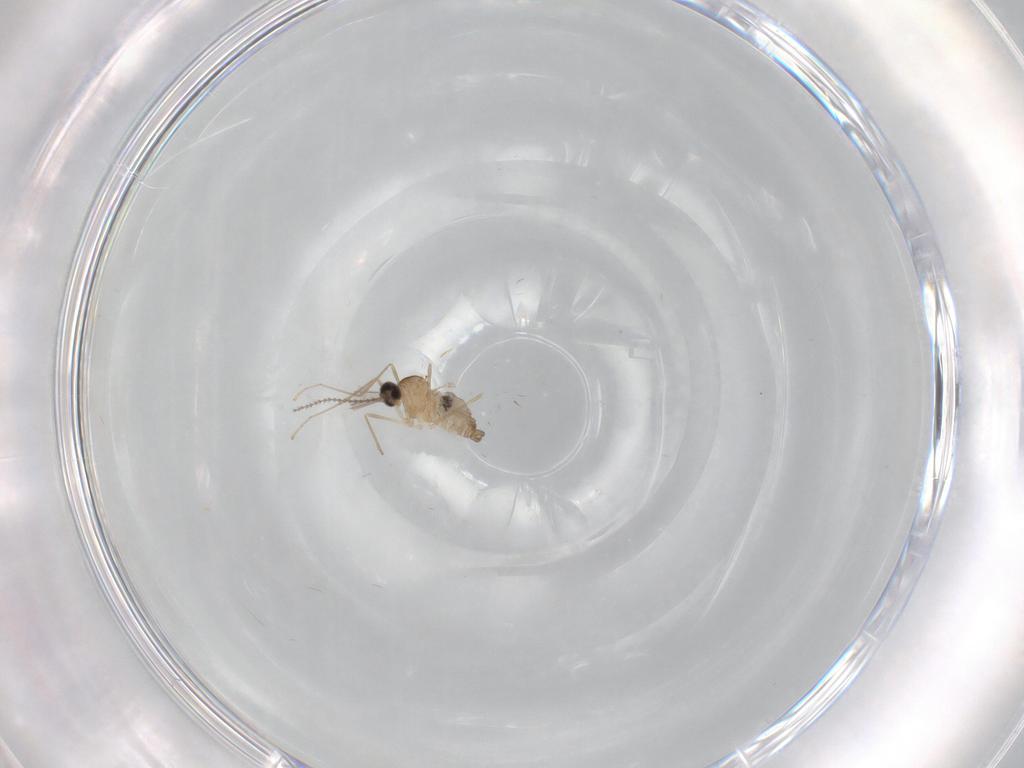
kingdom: Animalia
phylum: Arthropoda
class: Insecta
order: Diptera
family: Cecidomyiidae
